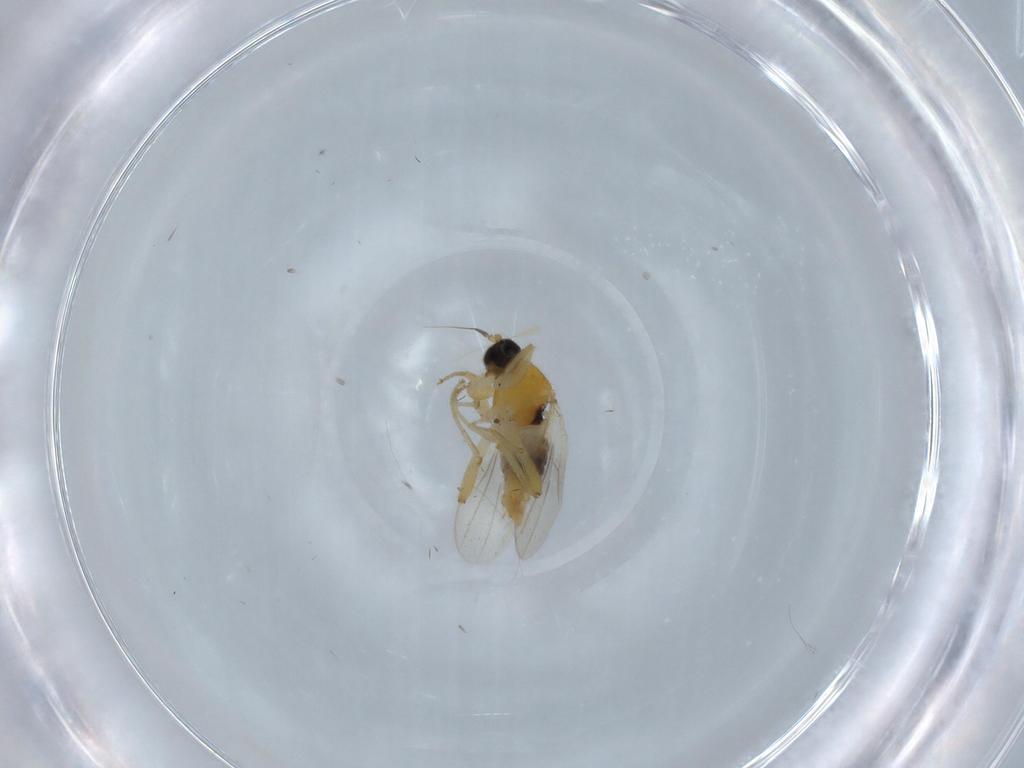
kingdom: Animalia
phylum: Arthropoda
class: Insecta
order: Diptera
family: Hybotidae
